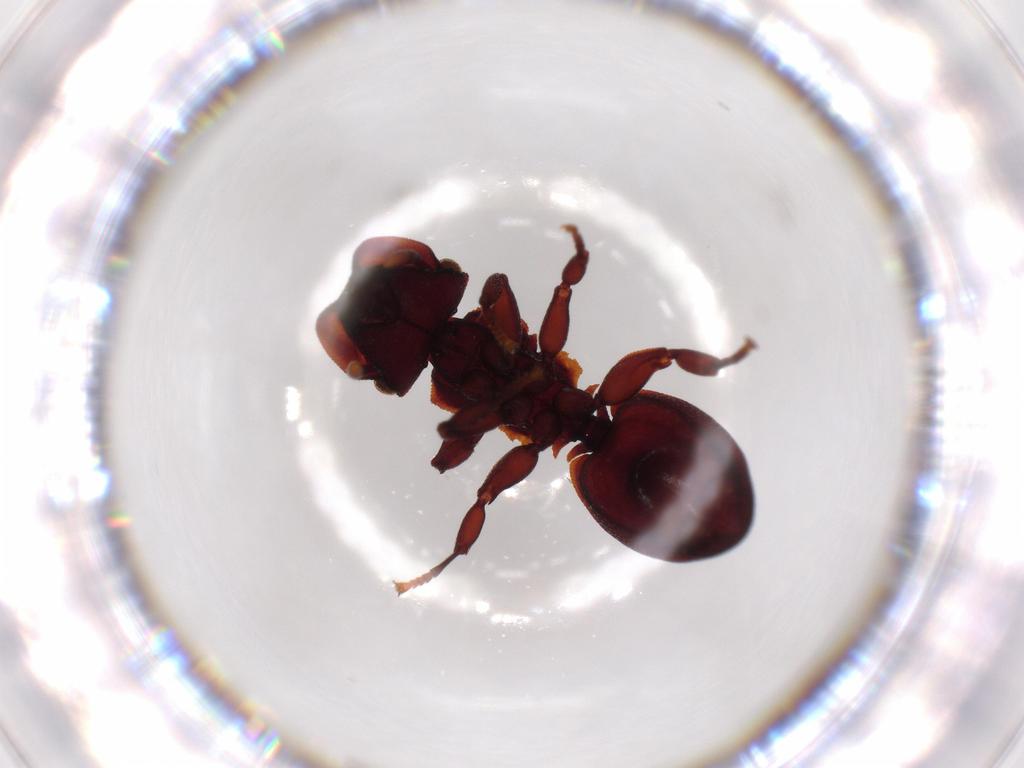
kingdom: Animalia
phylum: Arthropoda
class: Insecta
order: Hymenoptera
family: Formicidae
